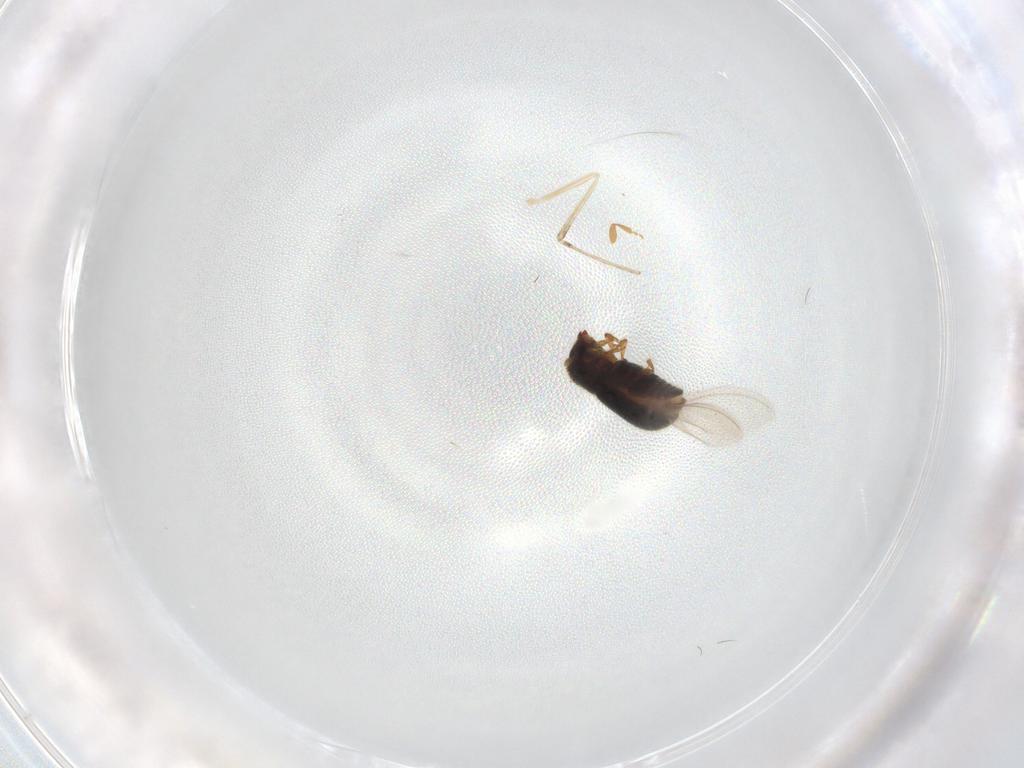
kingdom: Animalia
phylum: Arthropoda
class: Insecta
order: Coleoptera
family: Curculionidae
